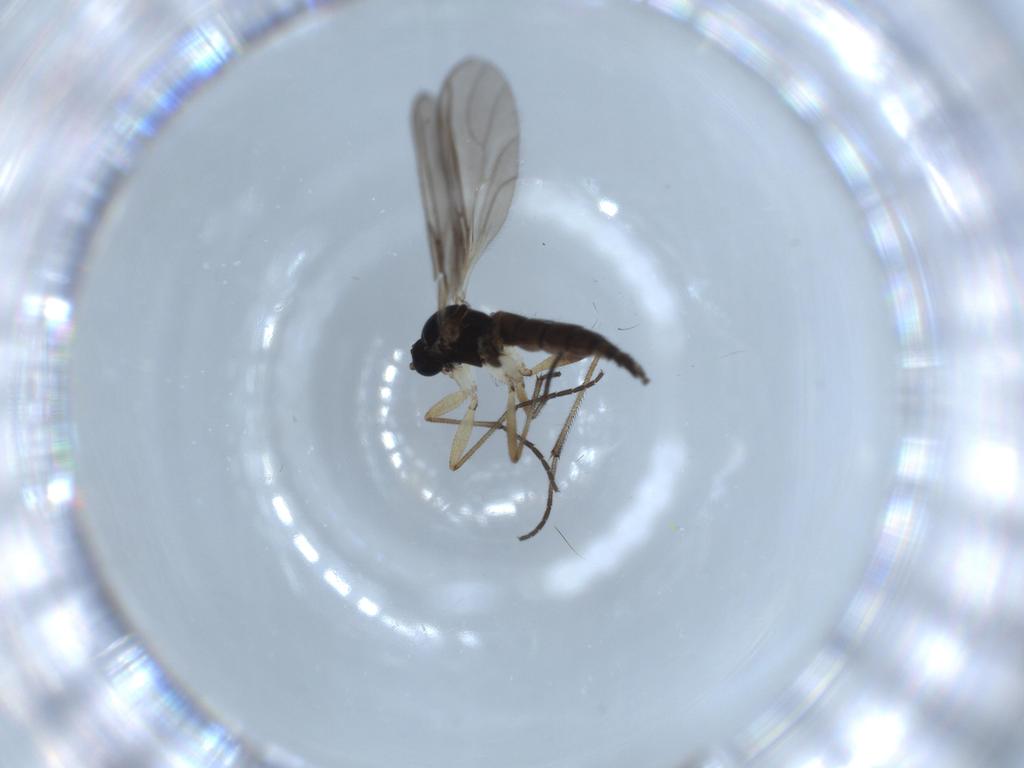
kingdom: Animalia
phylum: Arthropoda
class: Insecta
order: Diptera
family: Sciaridae
